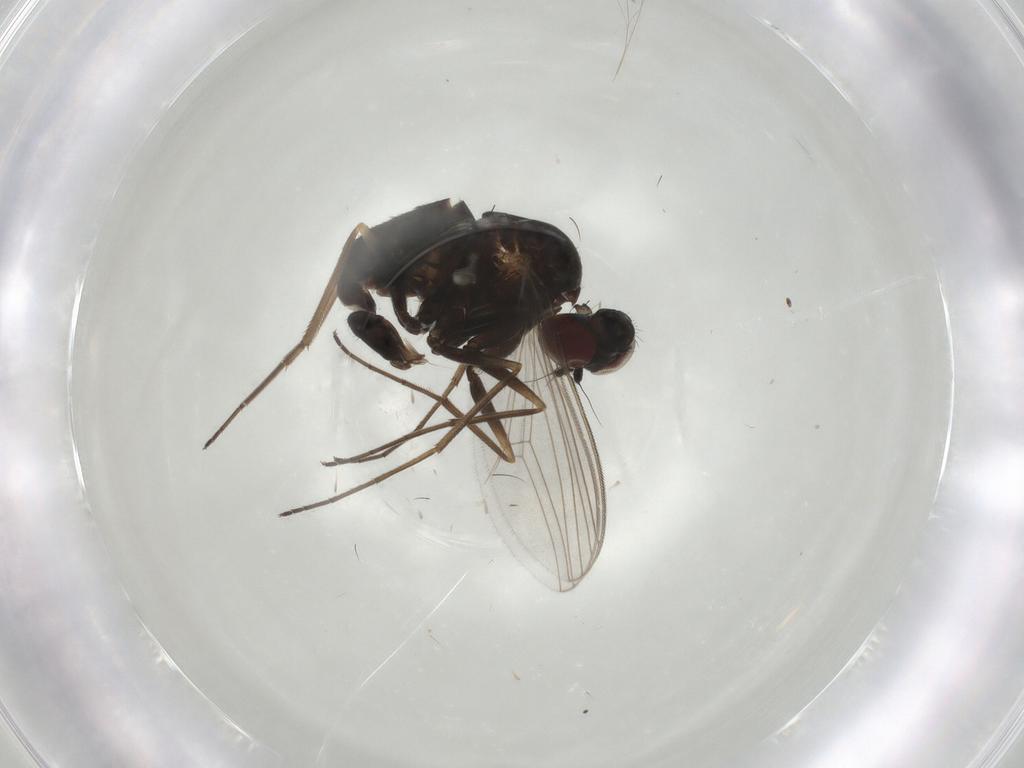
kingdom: Animalia
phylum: Arthropoda
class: Insecta
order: Diptera
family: Dolichopodidae
